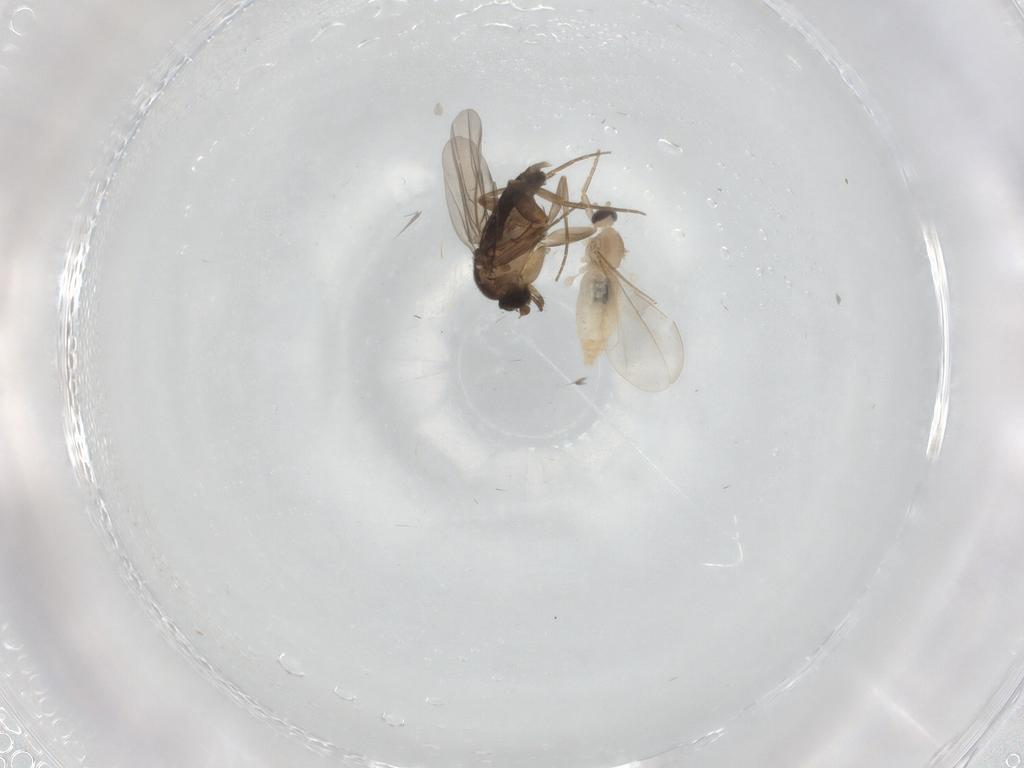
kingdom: Animalia
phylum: Arthropoda
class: Insecta
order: Diptera
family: Phoridae
